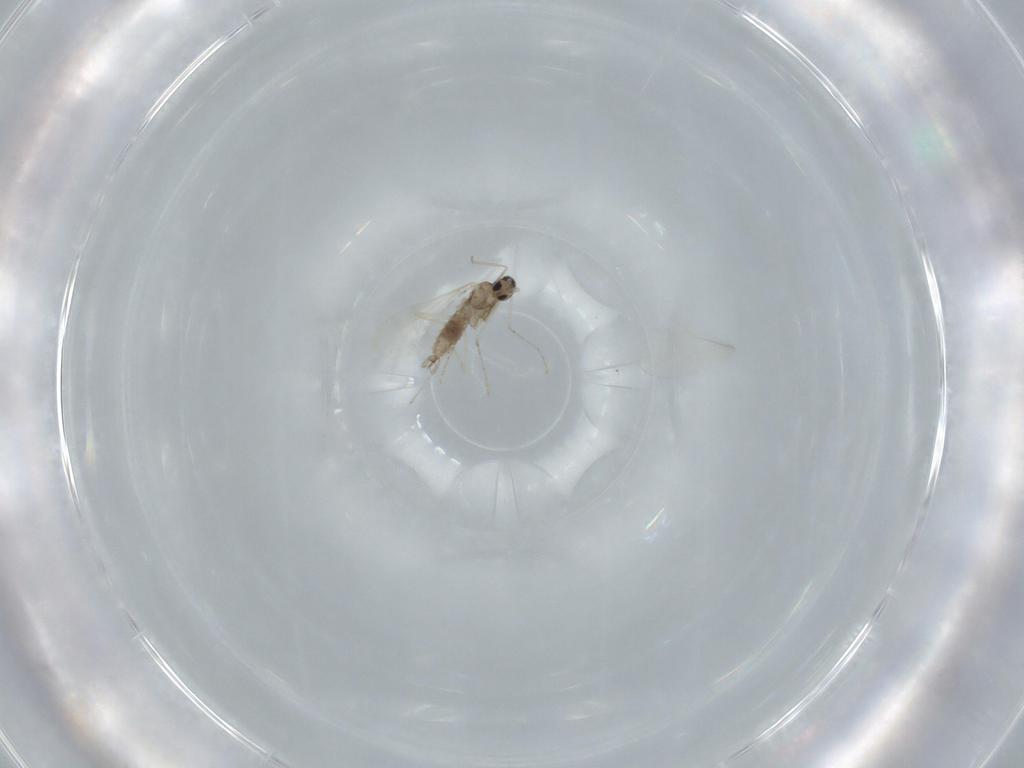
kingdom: Animalia
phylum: Arthropoda
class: Insecta
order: Diptera
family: Cecidomyiidae
